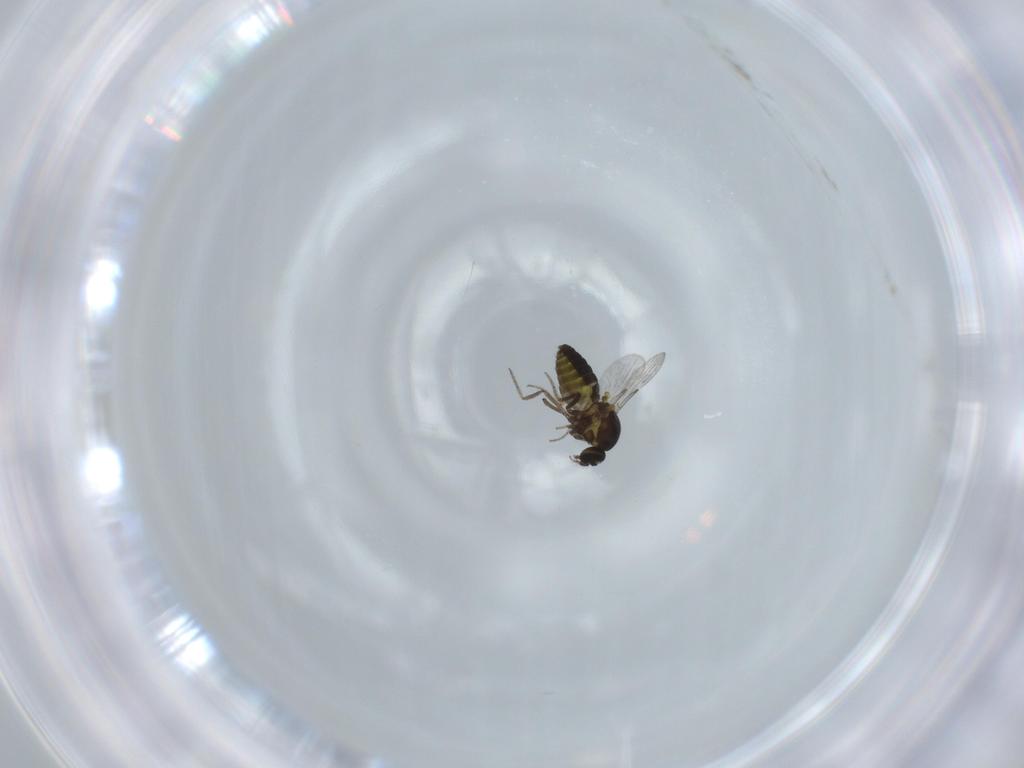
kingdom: Animalia
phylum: Arthropoda
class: Insecta
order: Diptera
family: Cecidomyiidae
